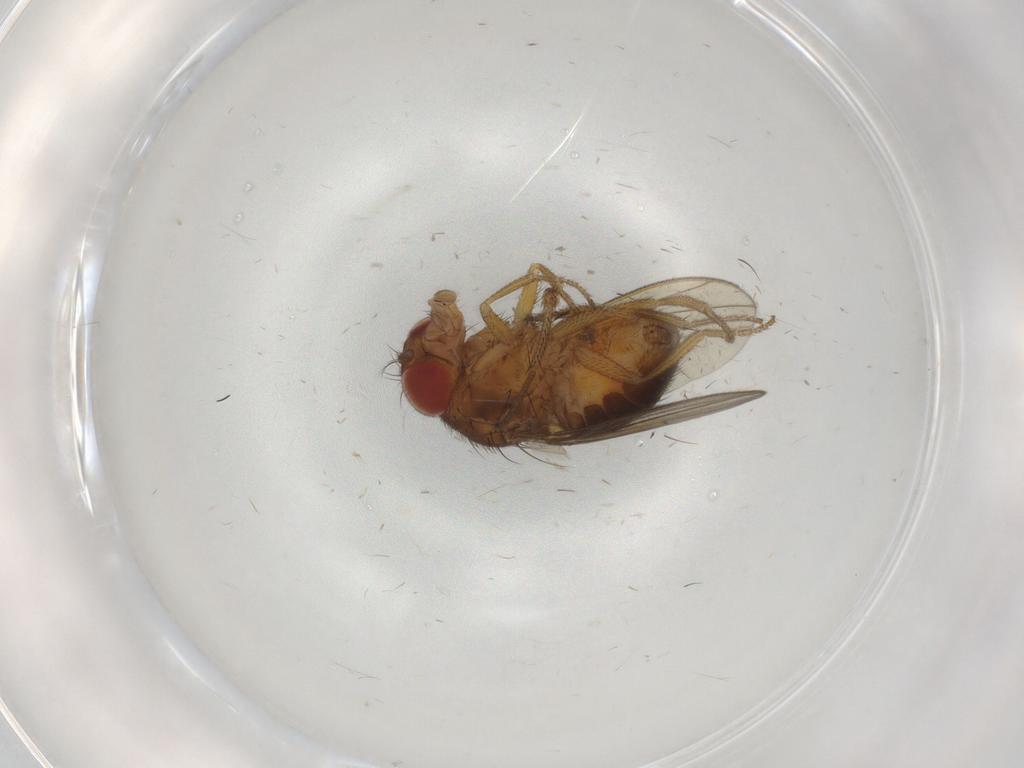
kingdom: Animalia
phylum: Arthropoda
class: Insecta
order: Diptera
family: Drosophilidae
